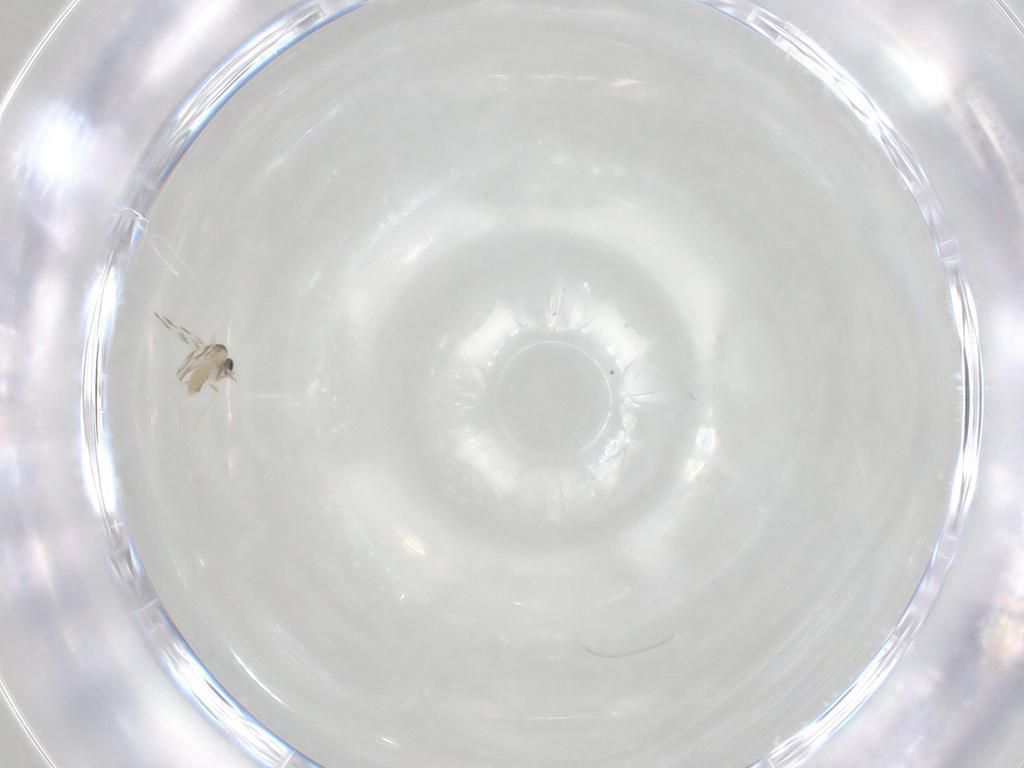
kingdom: Animalia
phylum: Arthropoda
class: Insecta
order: Diptera
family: Cecidomyiidae
